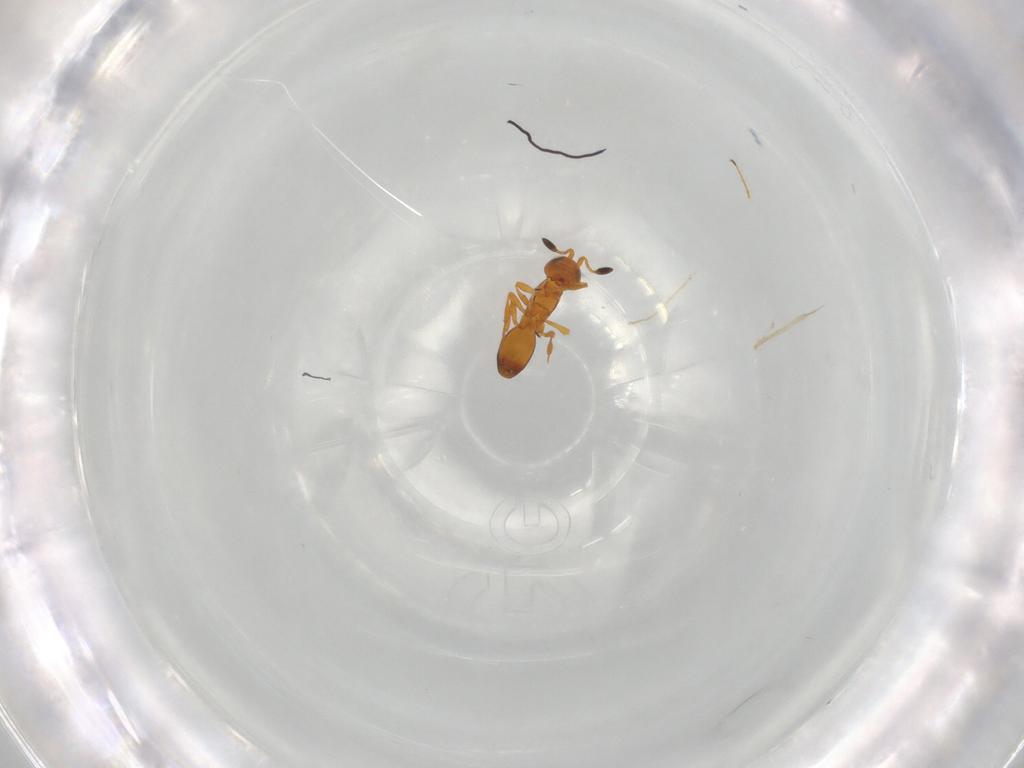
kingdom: Animalia
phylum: Arthropoda
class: Insecta
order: Hymenoptera
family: Platygastridae
